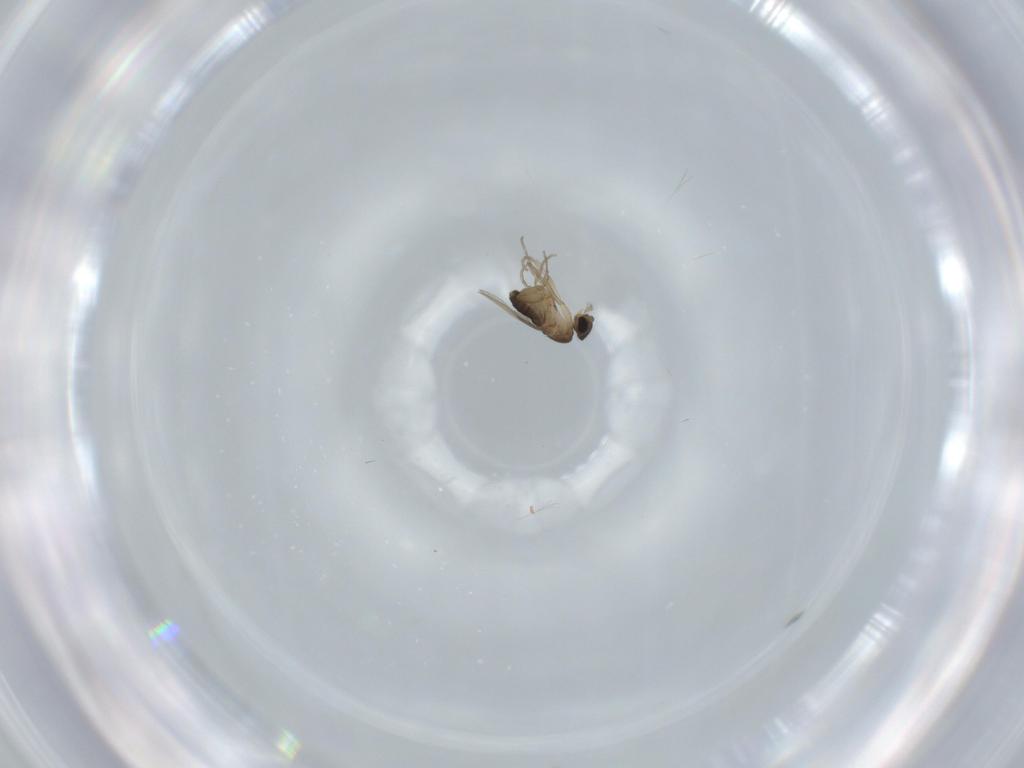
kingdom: Animalia
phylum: Arthropoda
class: Insecta
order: Diptera
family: Phoridae
